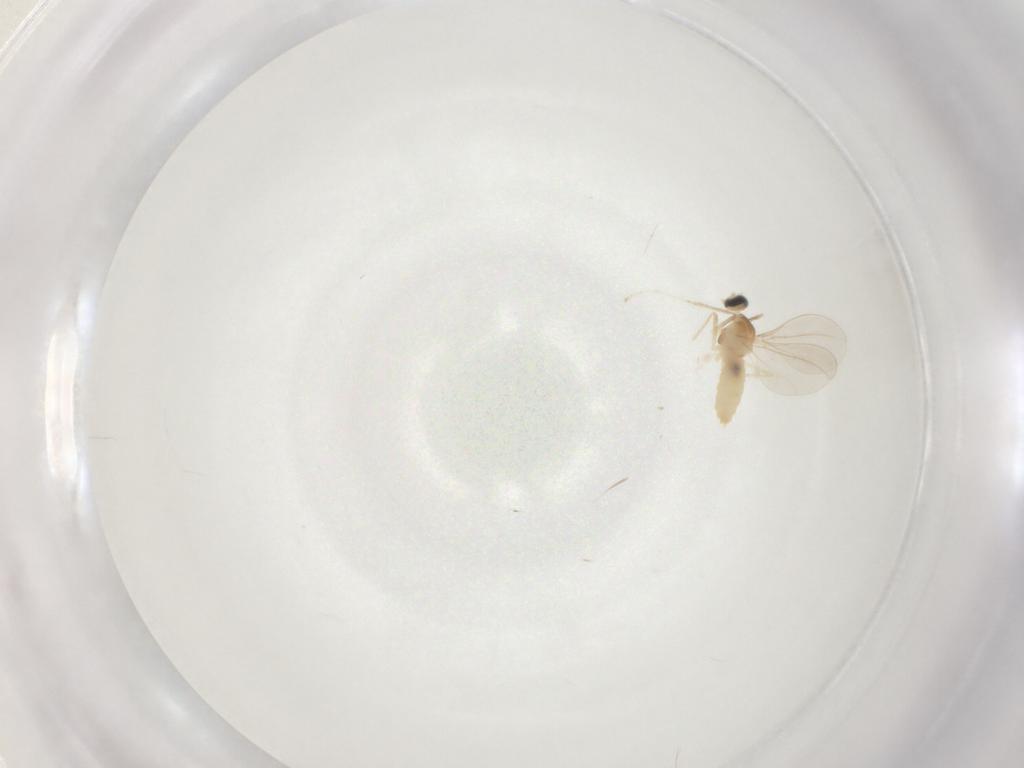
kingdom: Animalia
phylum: Arthropoda
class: Insecta
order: Diptera
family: Cecidomyiidae
